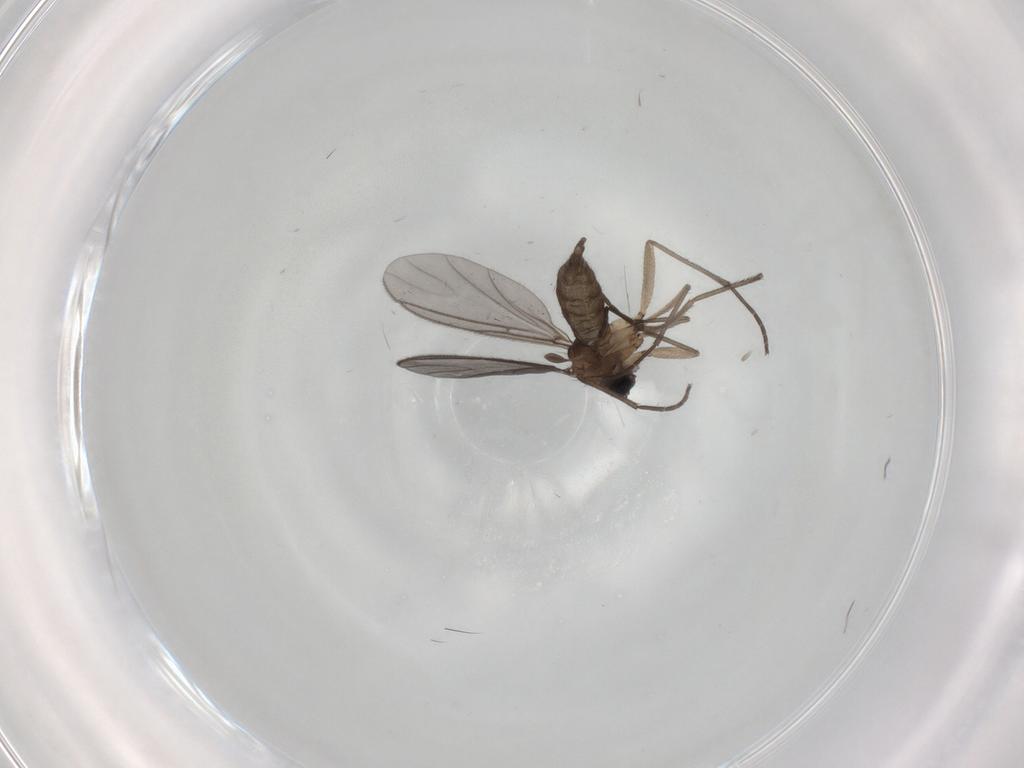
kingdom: Animalia
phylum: Arthropoda
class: Insecta
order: Diptera
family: Sciaridae
